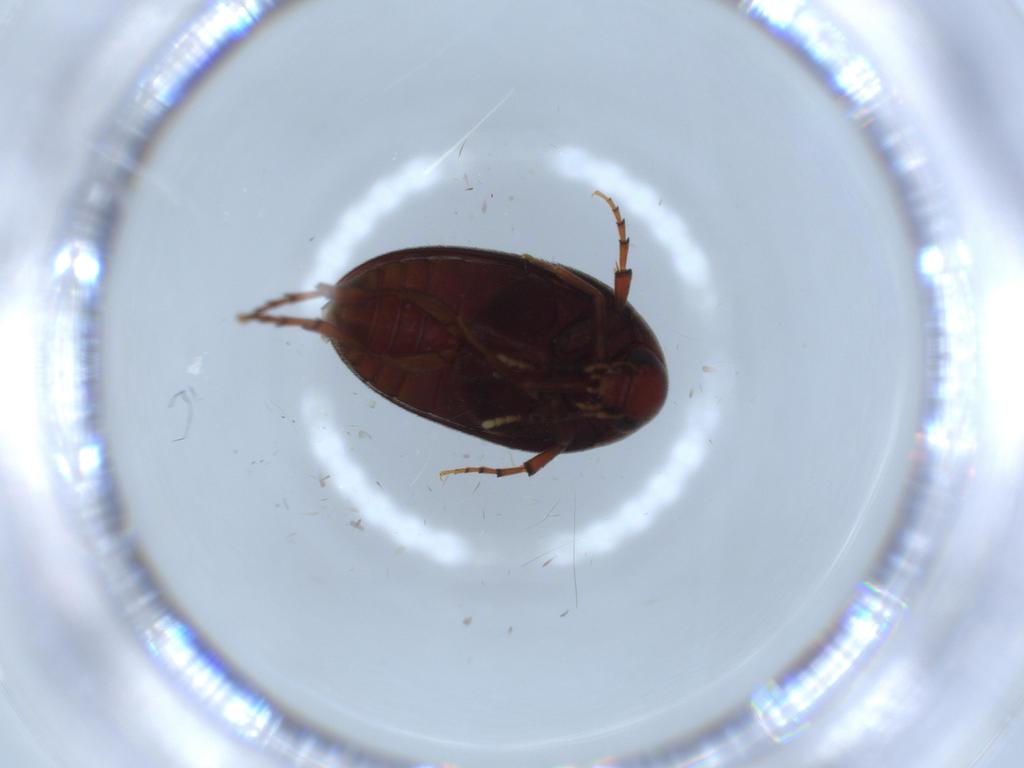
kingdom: Animalia
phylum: Arthropoda
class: Insecta
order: Coleoptera
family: Eucinetidae
